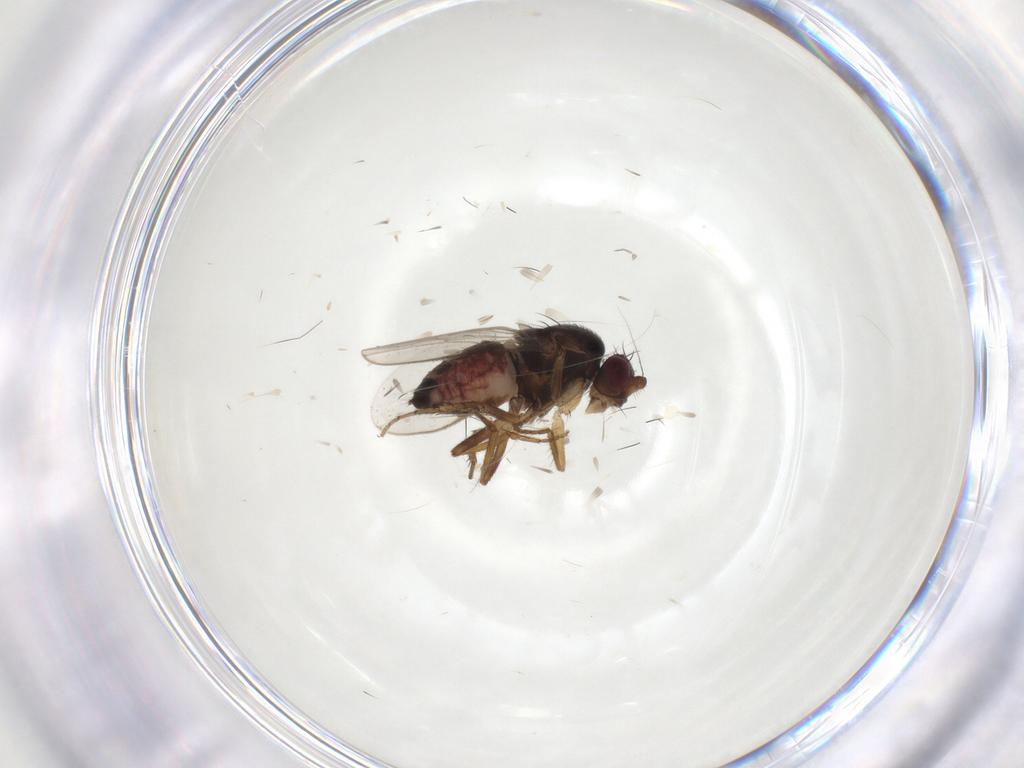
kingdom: Animalia
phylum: Arthropoda
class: Insecta
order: Diptera
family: Sphaeroceridae
